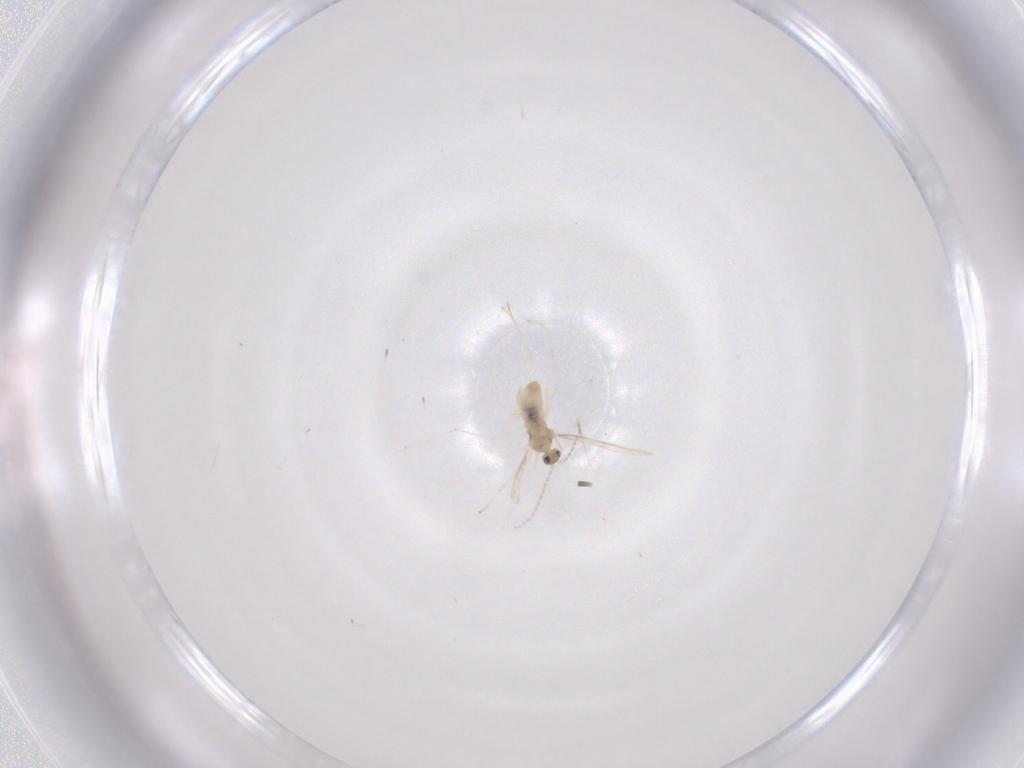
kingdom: Animalia
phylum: Arthropoda
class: Insecta
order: Diptera
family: Cecidomyiidae
